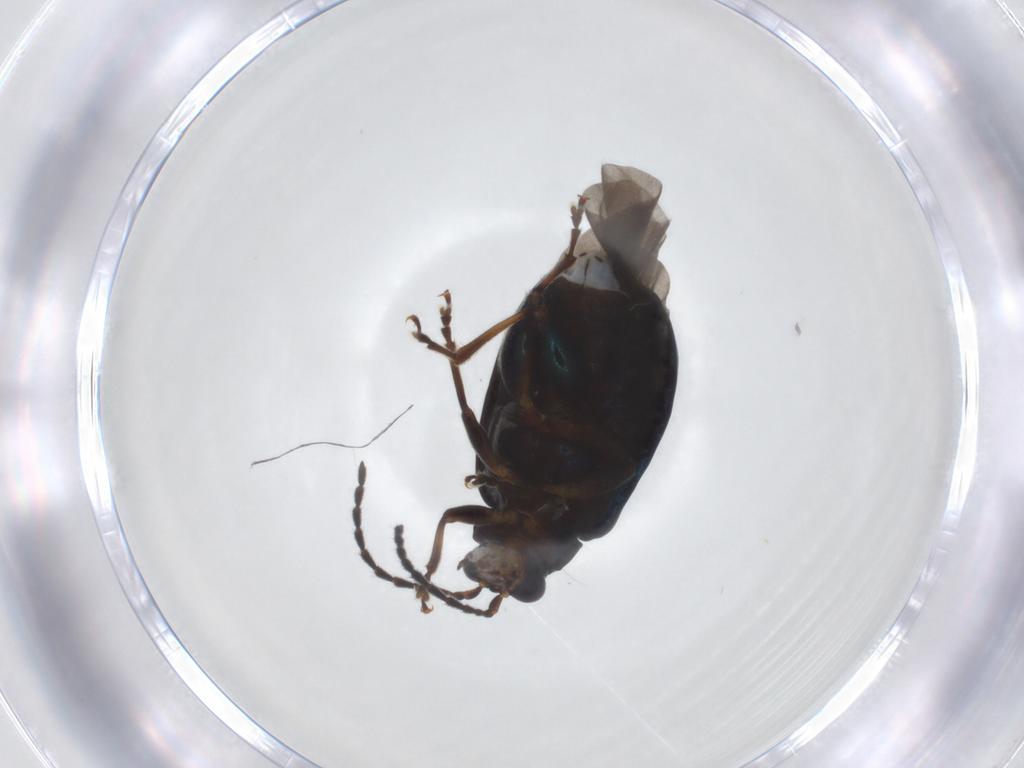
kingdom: Animalia
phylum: Arthropoda
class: Insecta
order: Coleoptera
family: Chrysomelidae
